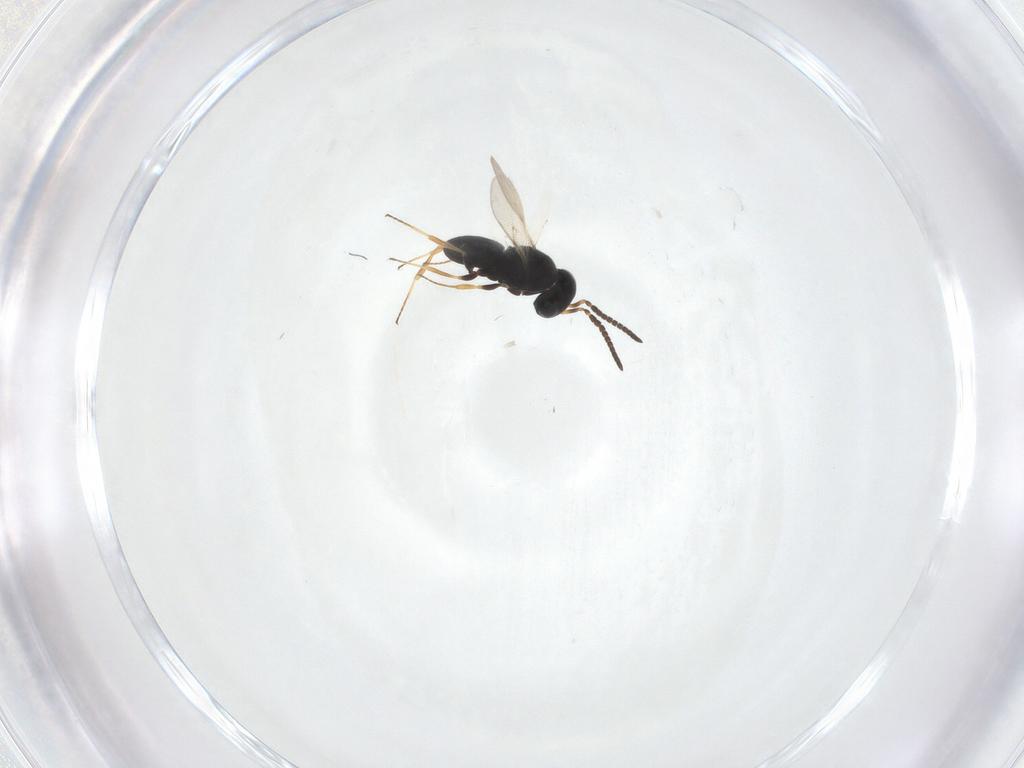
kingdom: Animalia
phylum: Arthropoda
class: Insecta
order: Hymenoptera
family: Scelionidae
